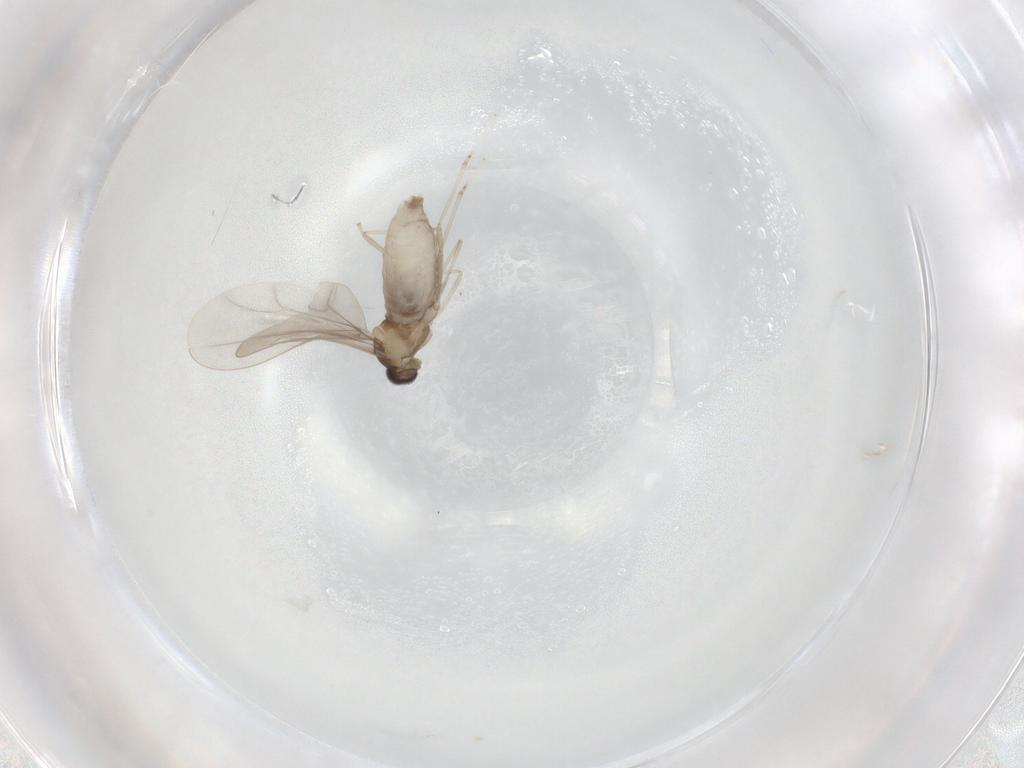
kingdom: Animalia
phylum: Arthropoda
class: Insecta
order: Diptera
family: Cecidomyiidae
